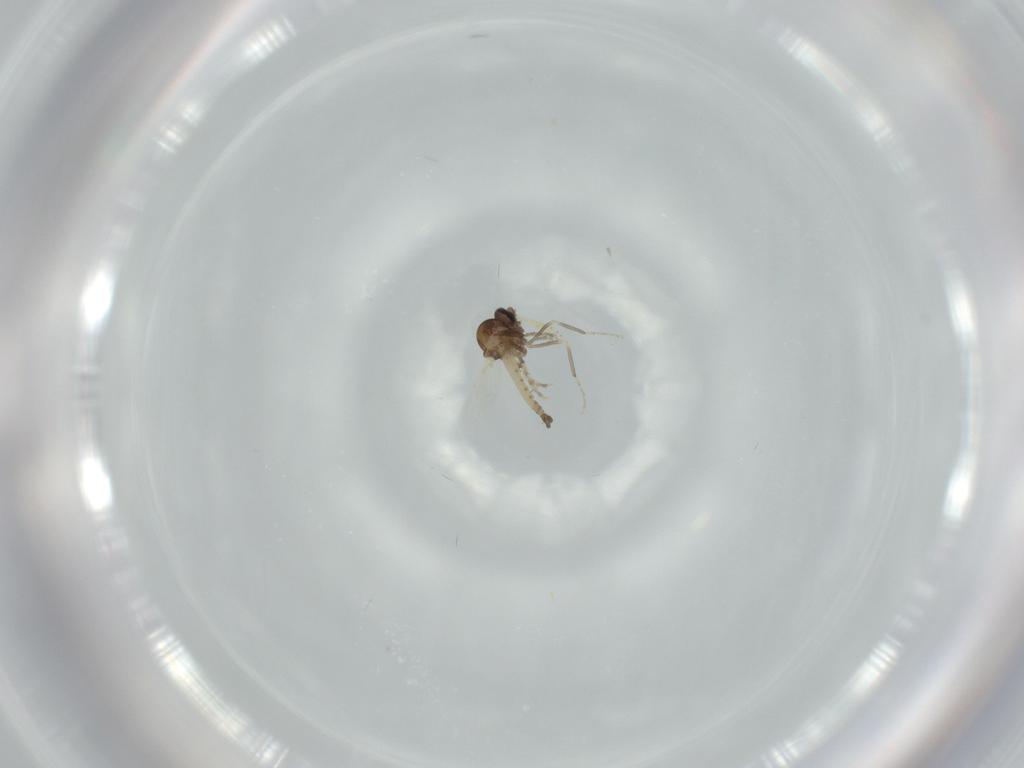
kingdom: Animalia
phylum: Arthropoda
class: Insecta
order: Diptera
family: Ceratopogonidae
